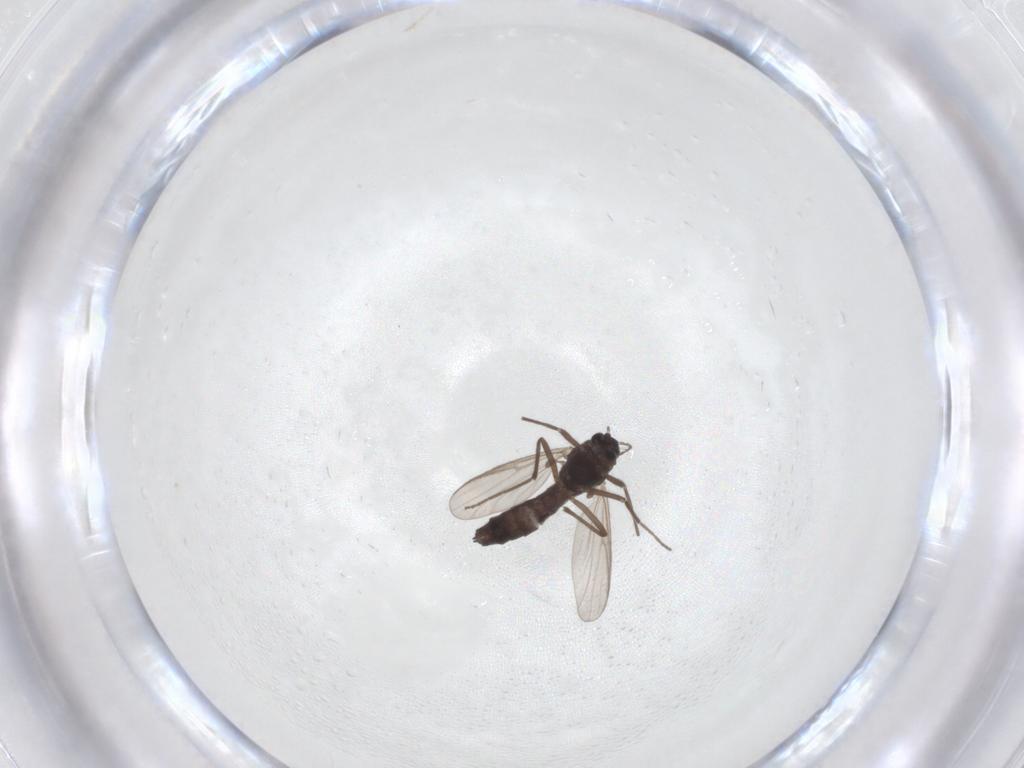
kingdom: Animalia
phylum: Arthropoda
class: Insecta
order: Diptera
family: Chironomidae
